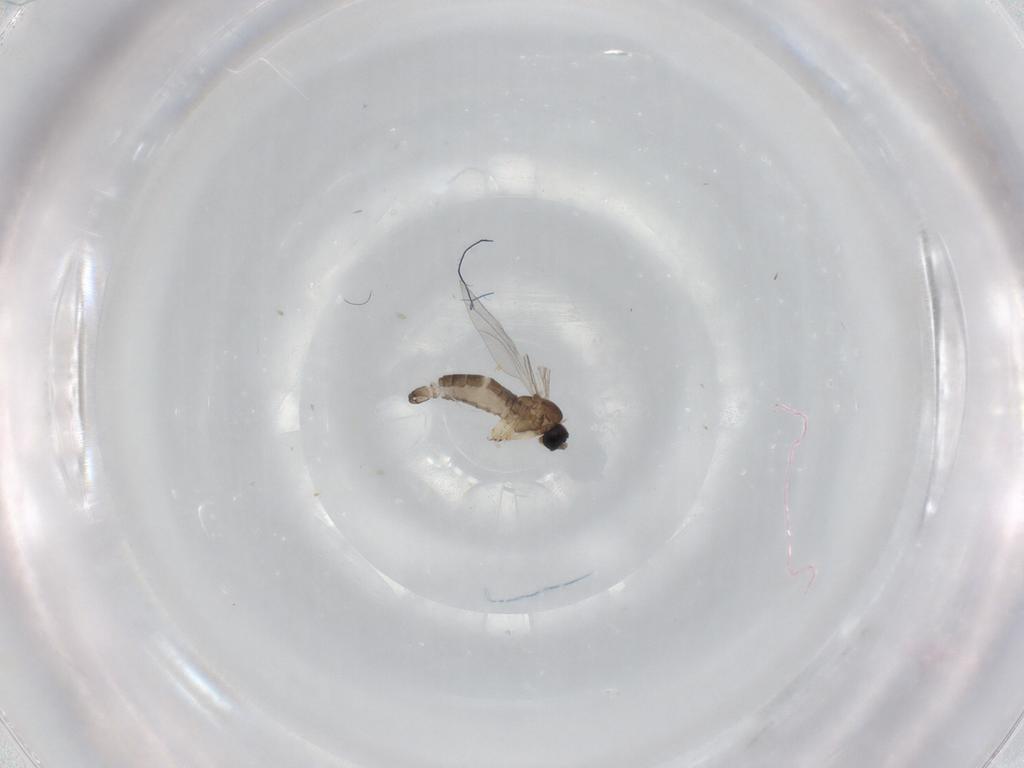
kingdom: Animalia
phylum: Arthropoda
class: Insecta
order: Diptera
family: Sciaridae
